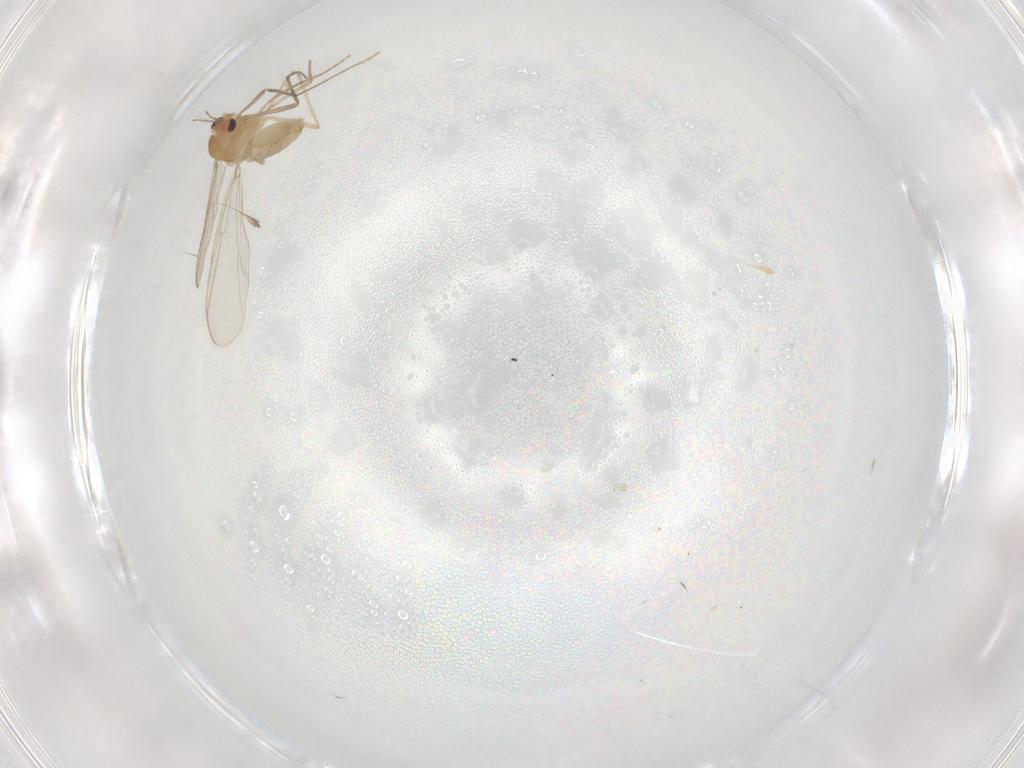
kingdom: Animalia
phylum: Arthropoda
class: Insecta
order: Diptera
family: Chironomidae
